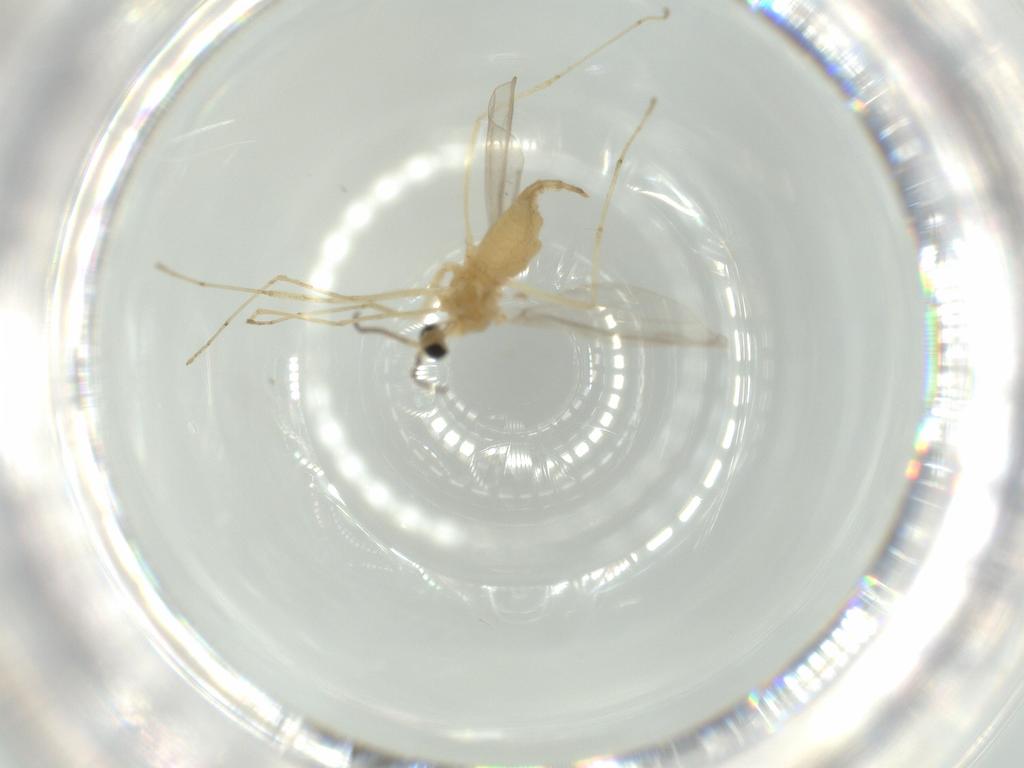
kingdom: Animalia
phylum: Arthropoda
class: Insecta
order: Diptera
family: Cecidomyiidae
